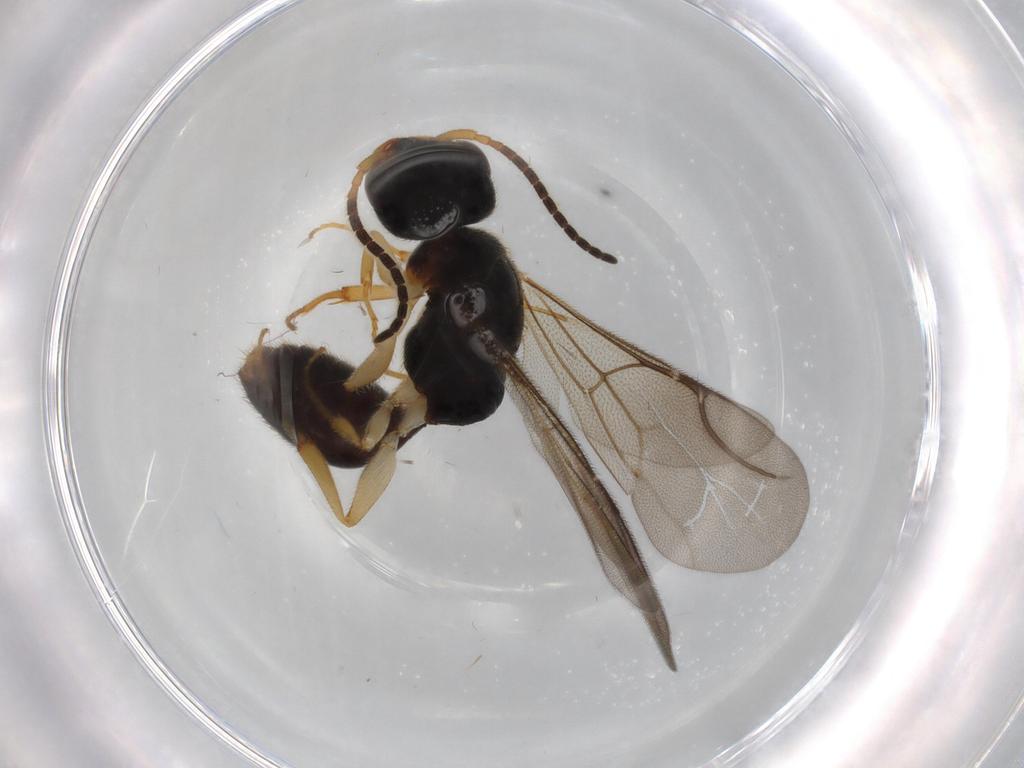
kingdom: Animalia
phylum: Arthropoda
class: Insecta
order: Hymenoptera
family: Bethylidae
